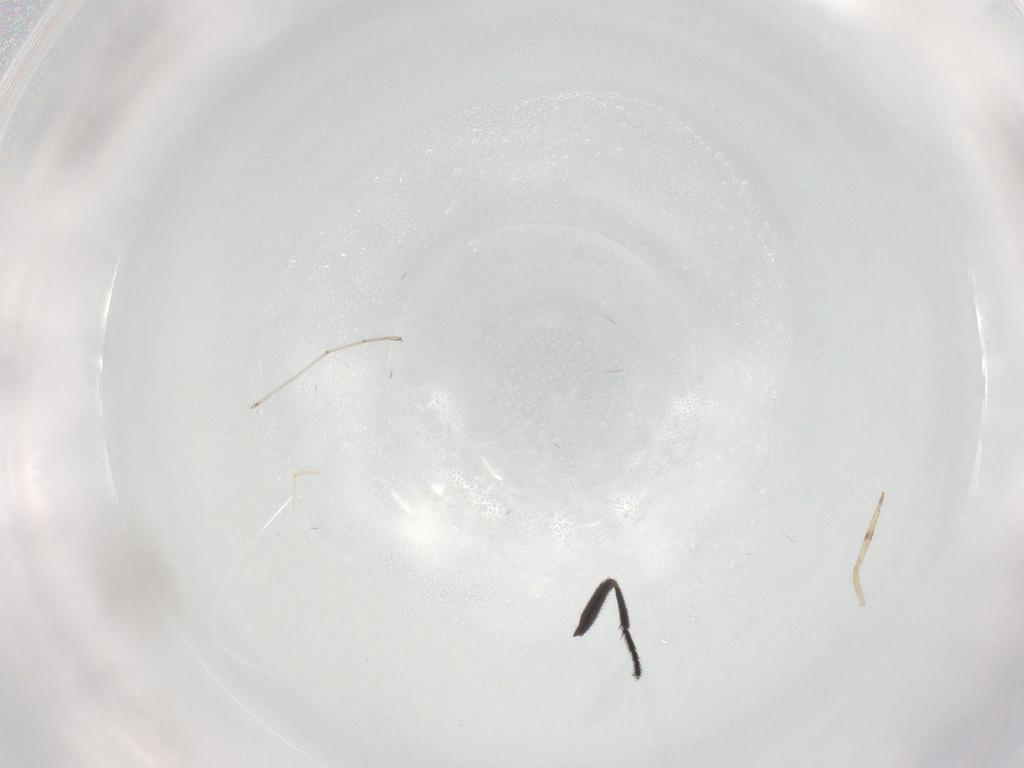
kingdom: Animalia
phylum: Arthropoda
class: Insecta
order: Diptera
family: Milichiidae
